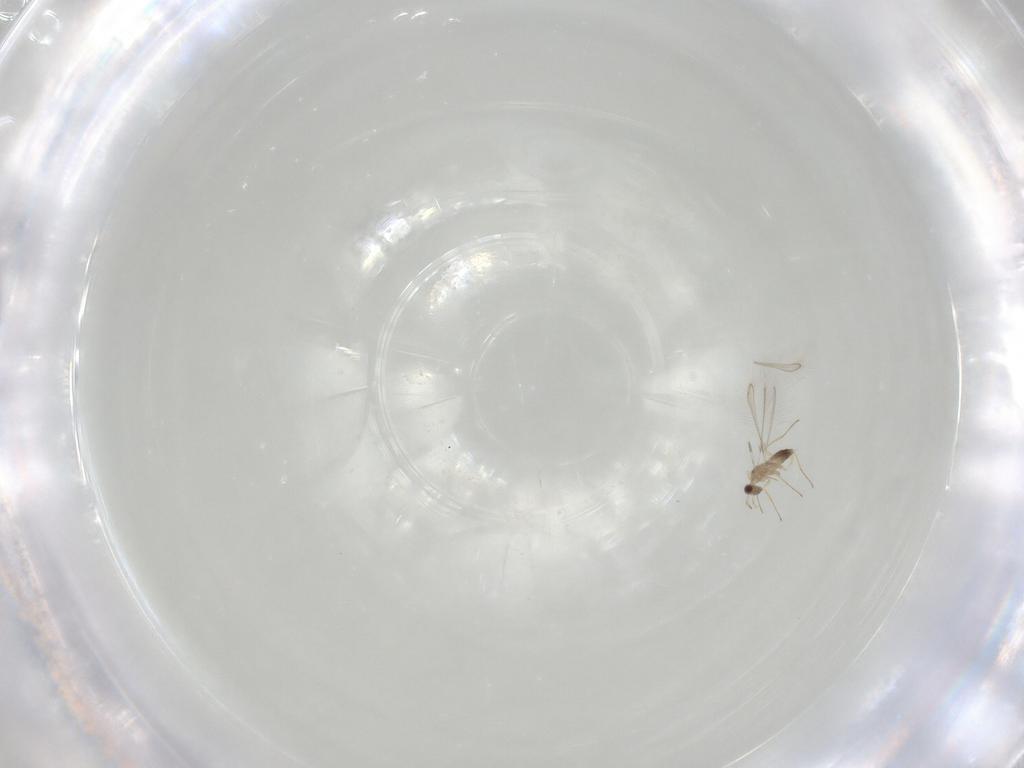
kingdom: Animalia
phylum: Arthropoda
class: Insecta
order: Hymenoptera
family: Mymaridae
